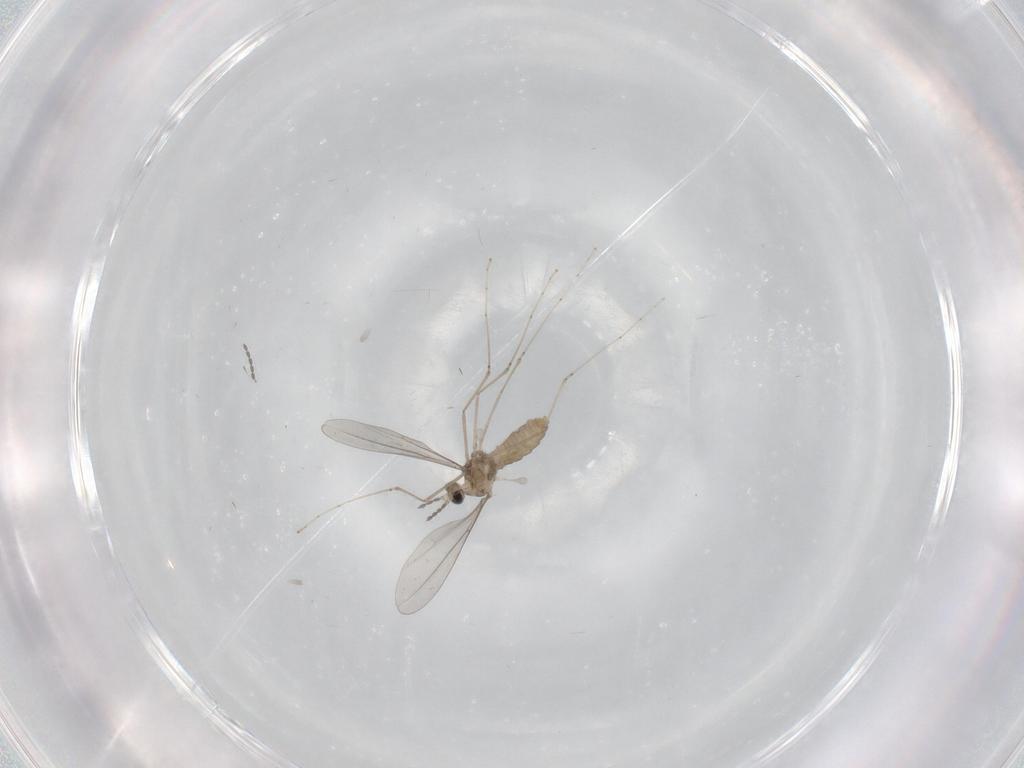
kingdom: Animalia
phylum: Arthropoda
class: Insecta
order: Diptera
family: Cecidomyiidae
